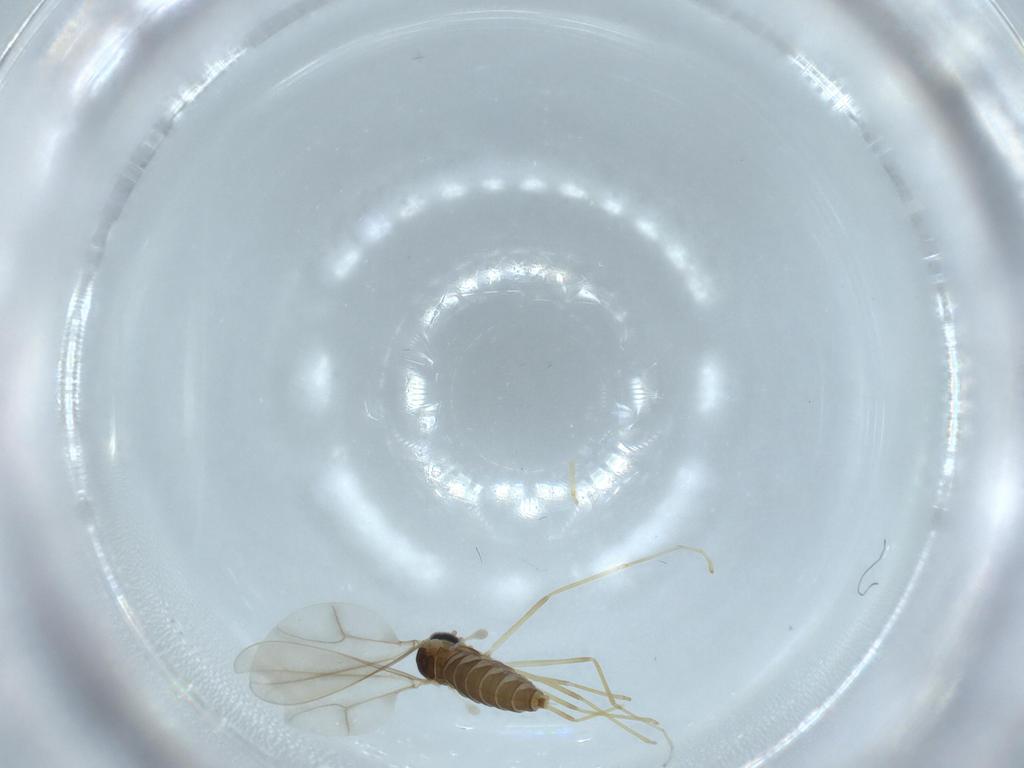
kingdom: Animalia
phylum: Arthropoda
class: Insecta
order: Diptera
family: Cecidomyiidae
